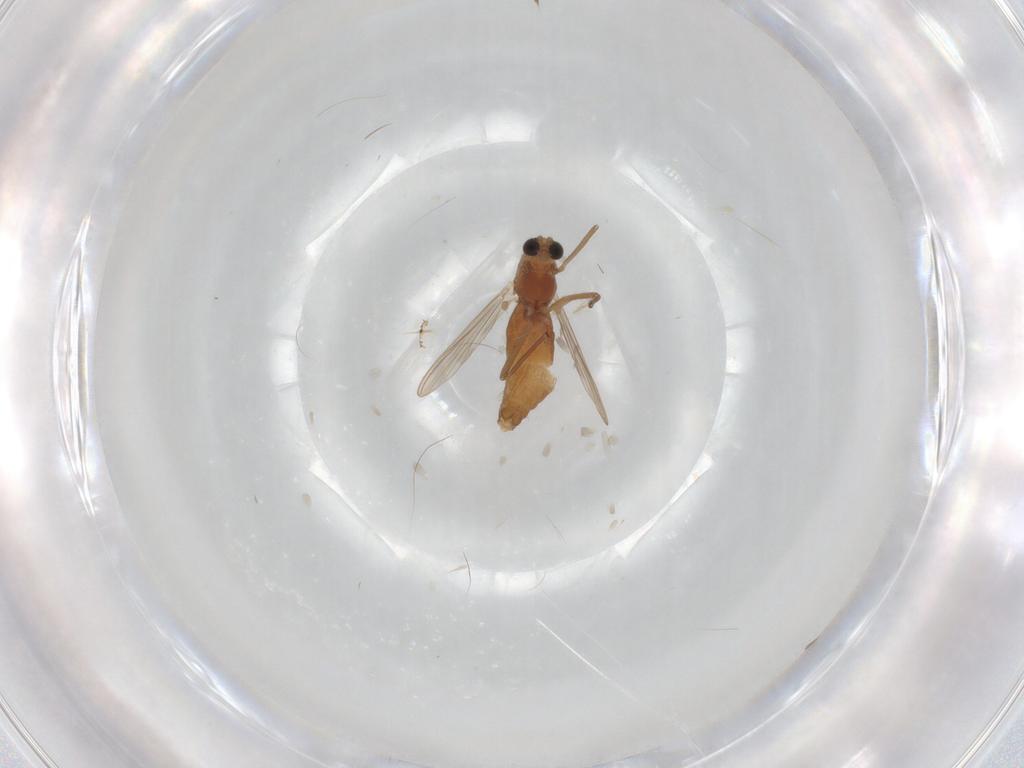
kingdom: Animalia
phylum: Arthropoda
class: Insecta
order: Diptera
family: Chironomidae
